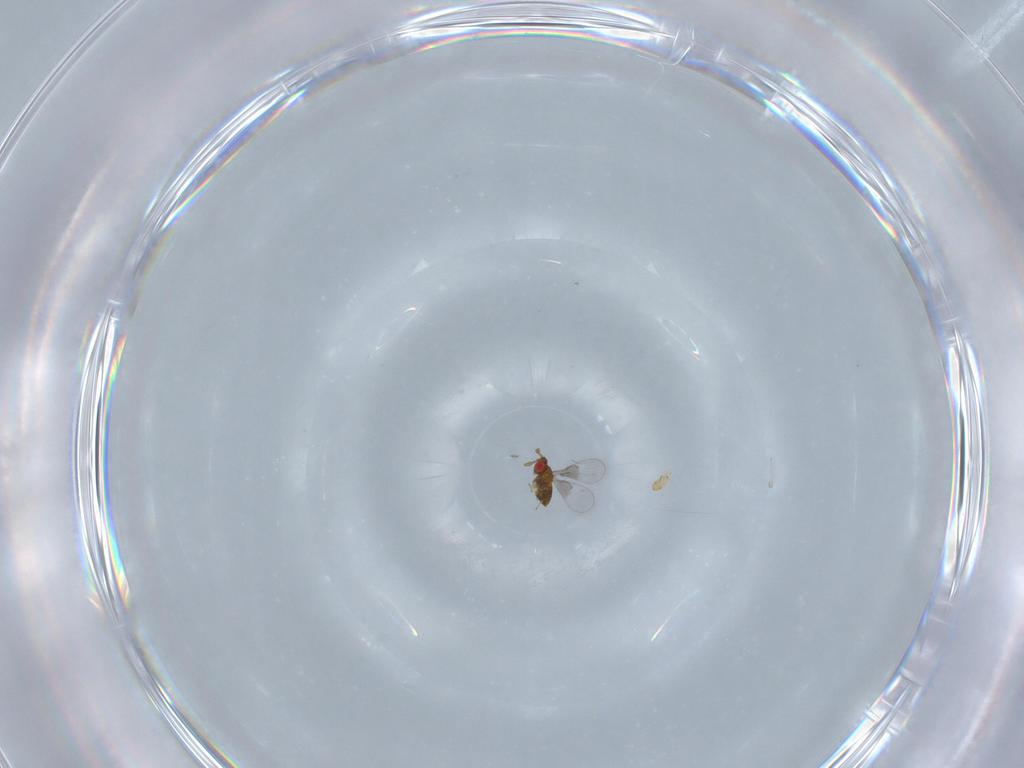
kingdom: Animalia
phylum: Arthropoda
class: Insecta
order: Hymenoptera
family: Trichogrammatidae
